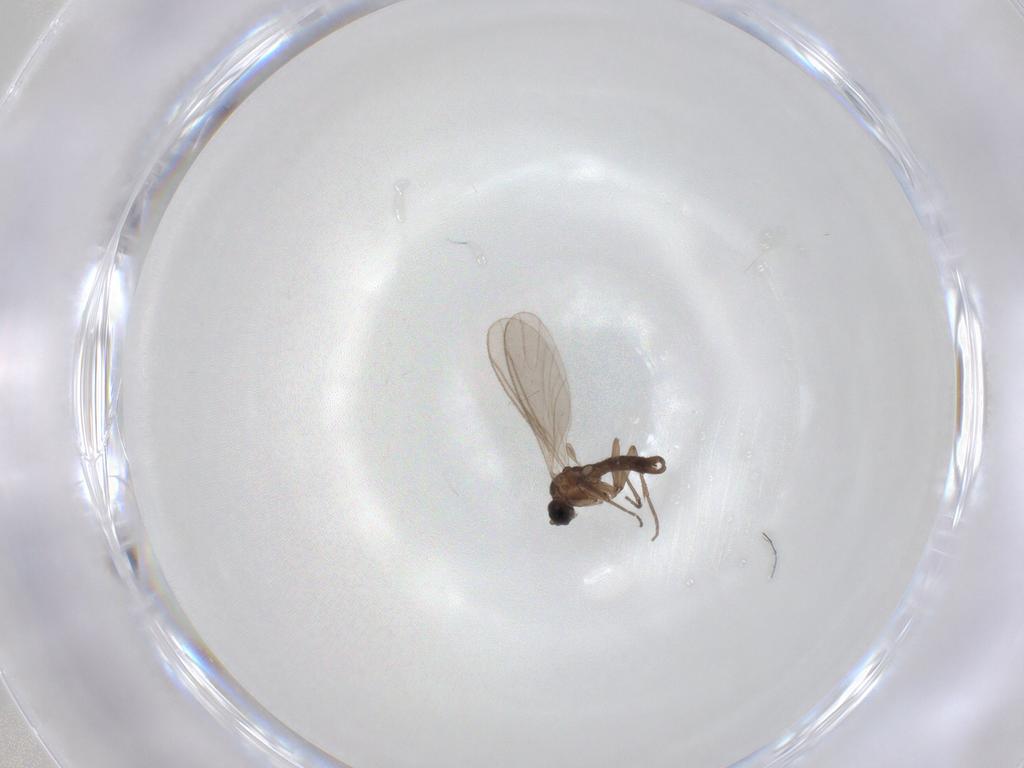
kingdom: Animalia
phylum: Arthropoda
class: Insecta
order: Diptera
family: Sciaridae
